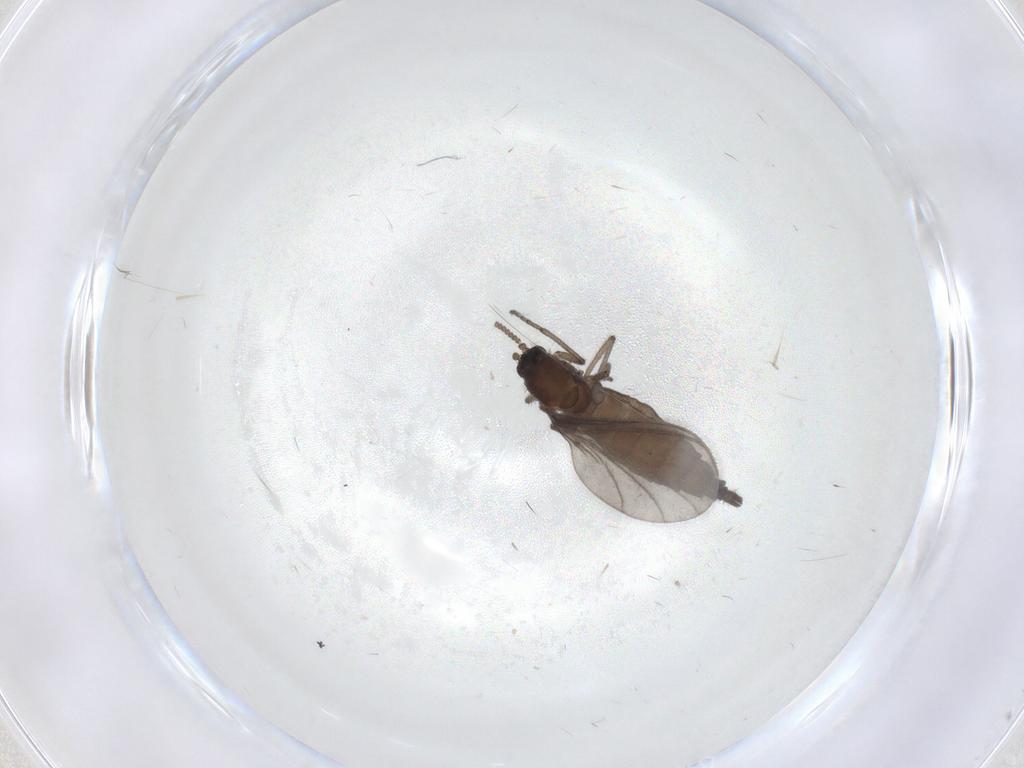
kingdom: Animalia
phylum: Arthropoda
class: Insecta
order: Diptera
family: Sciaridae
